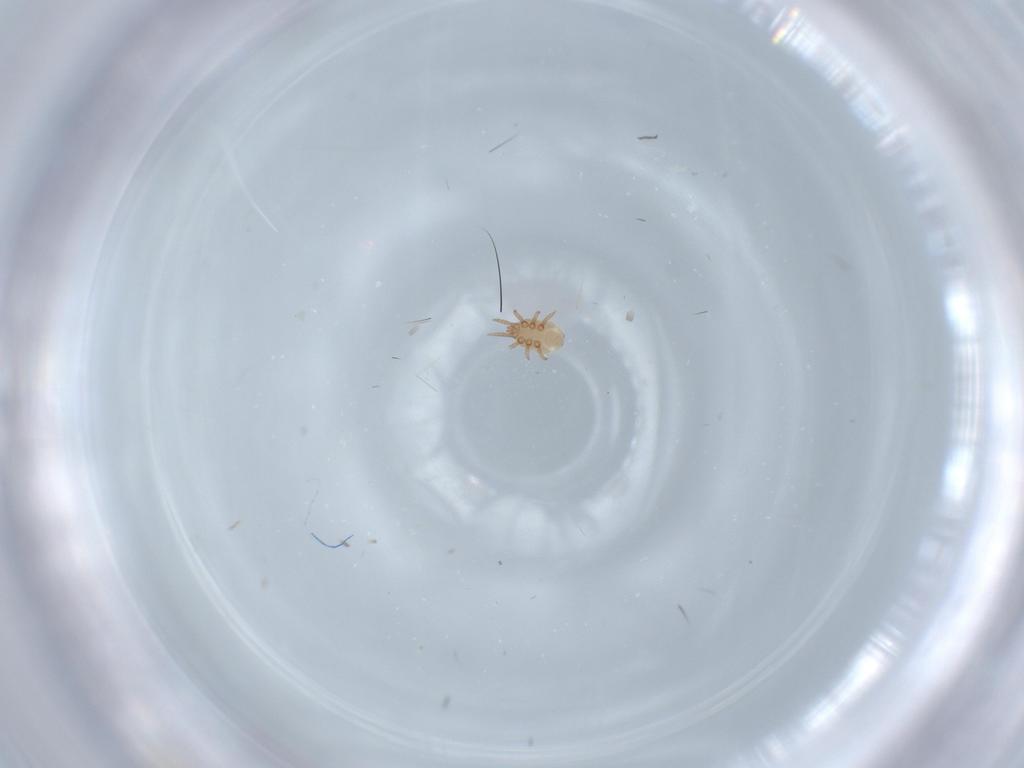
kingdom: Animalia
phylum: Arthropoda
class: Arachnida
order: Mesostigmata
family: Dinychidae
